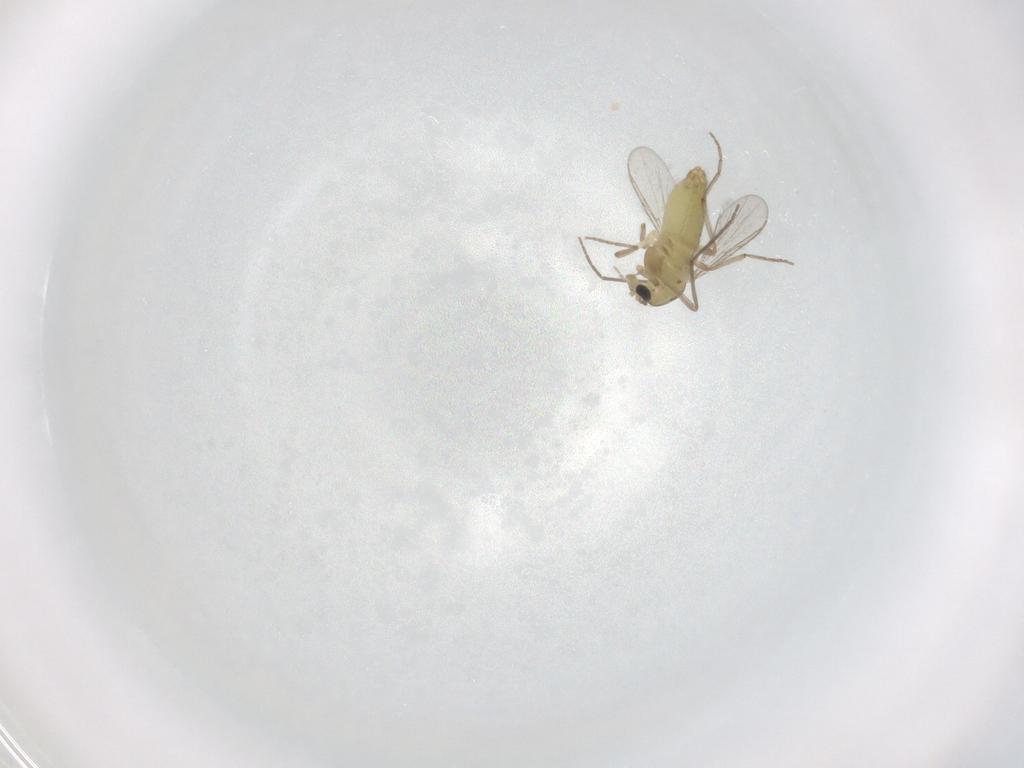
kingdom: Animalia
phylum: Arthropoda
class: Insecta
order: Diptera
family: Chironomidae
